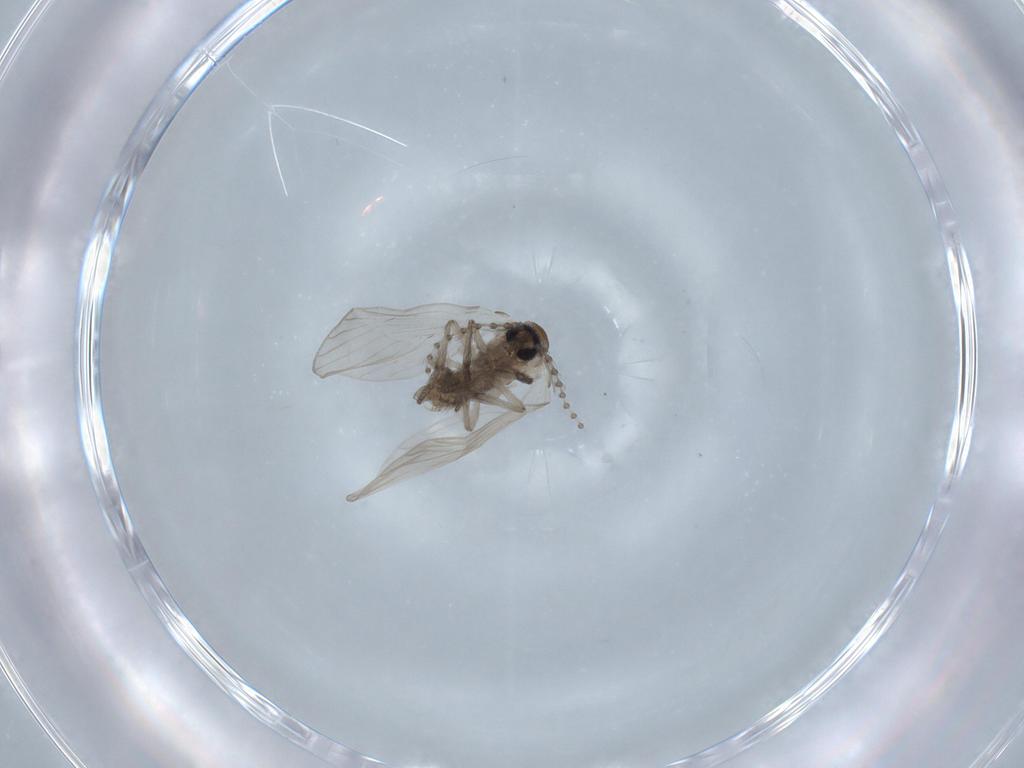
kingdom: Animalia
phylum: Arthropoda
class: Insecta
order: Diptera
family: Psychodidae
